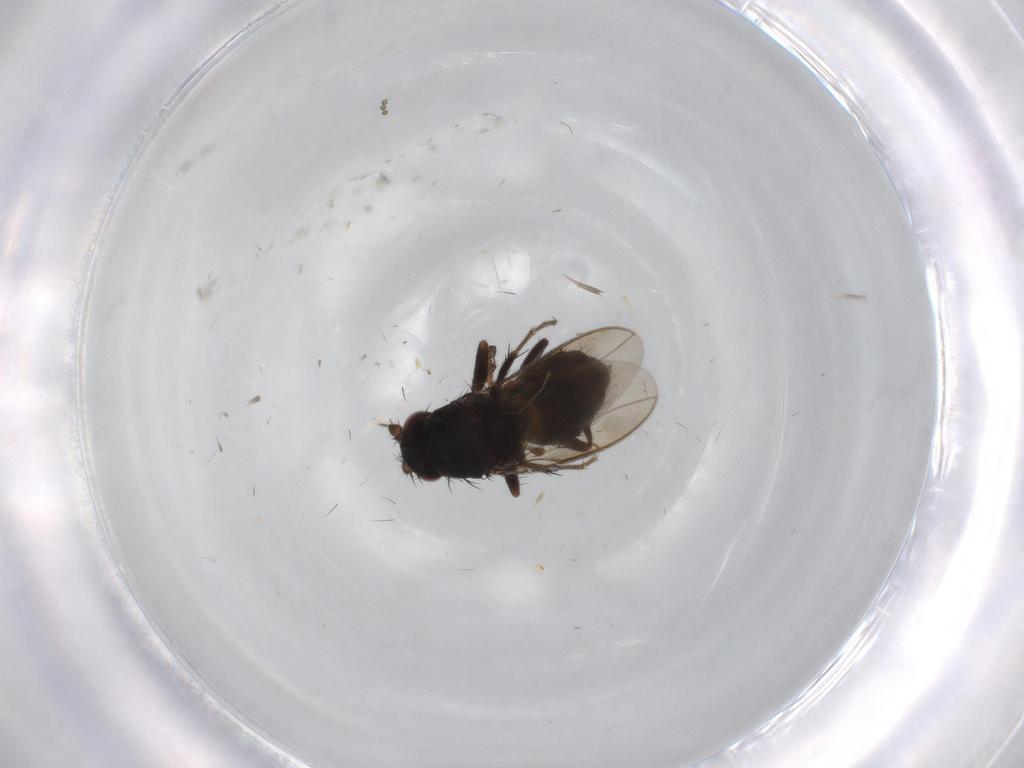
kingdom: Animalia
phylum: Arthropoda
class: Insecta
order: Diptera
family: Cecidomyiidae
